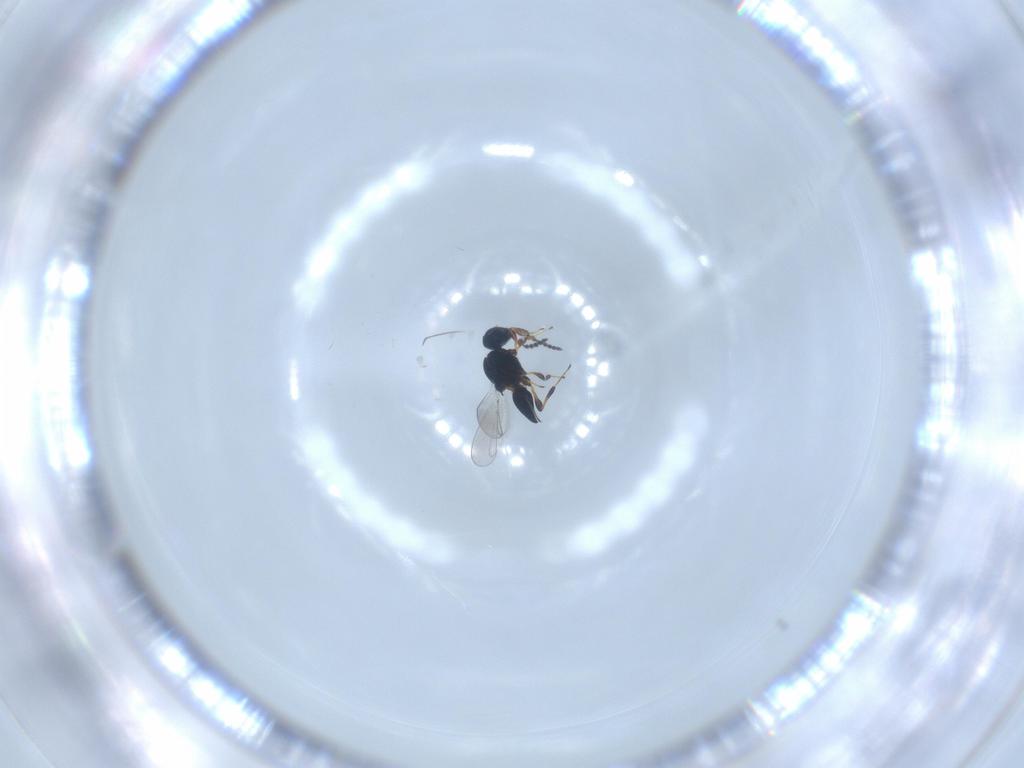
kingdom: Animalia
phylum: Arthropoda
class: Insecta
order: Hymenoptera
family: Platygastridae
